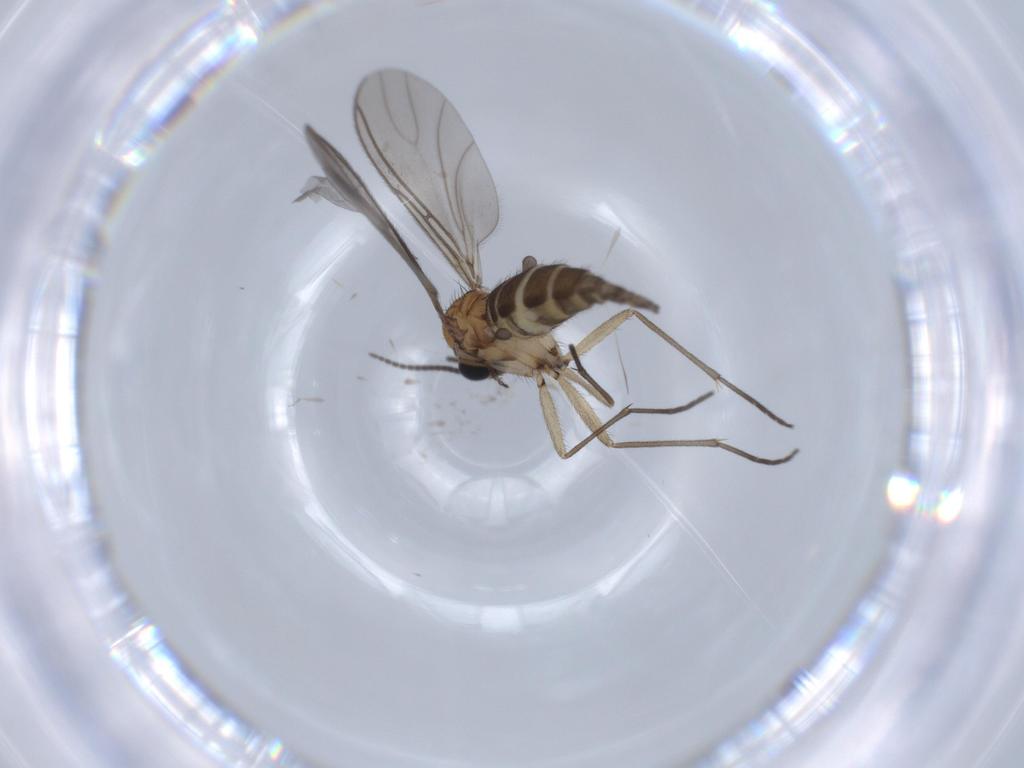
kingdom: Animalia
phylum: Arthropoda
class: Insecta
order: Diptera
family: Sciaridae
